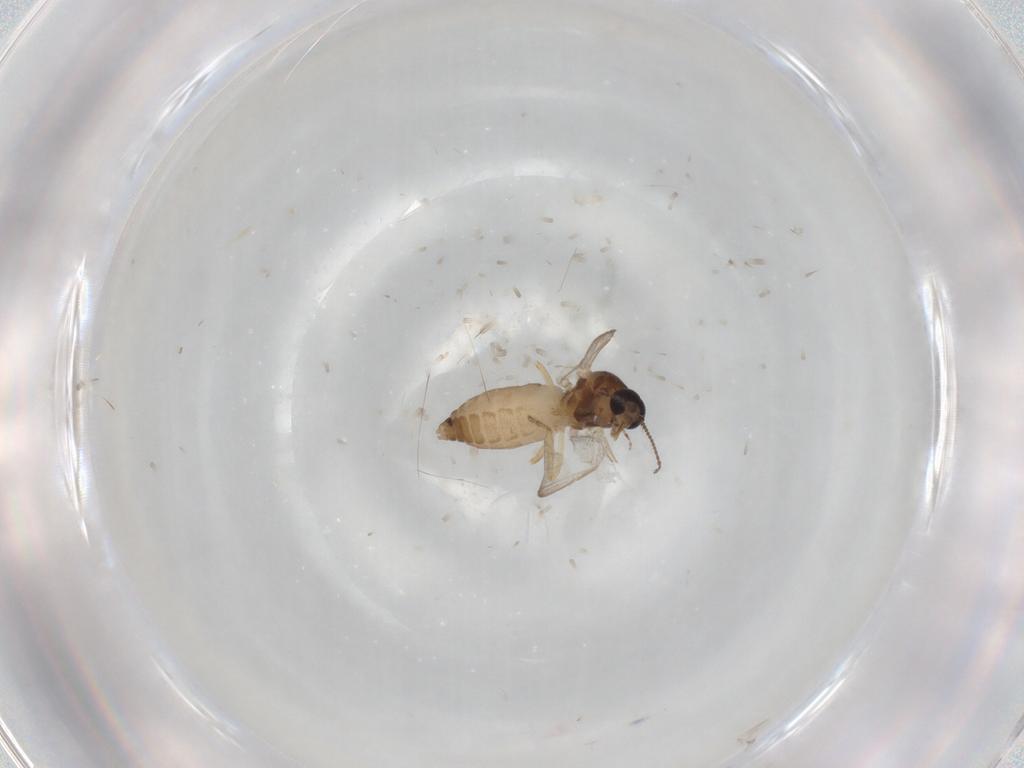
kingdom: Animalia
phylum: Arthropoda
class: Insecta
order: Diptera
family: Ceratopogonidae
